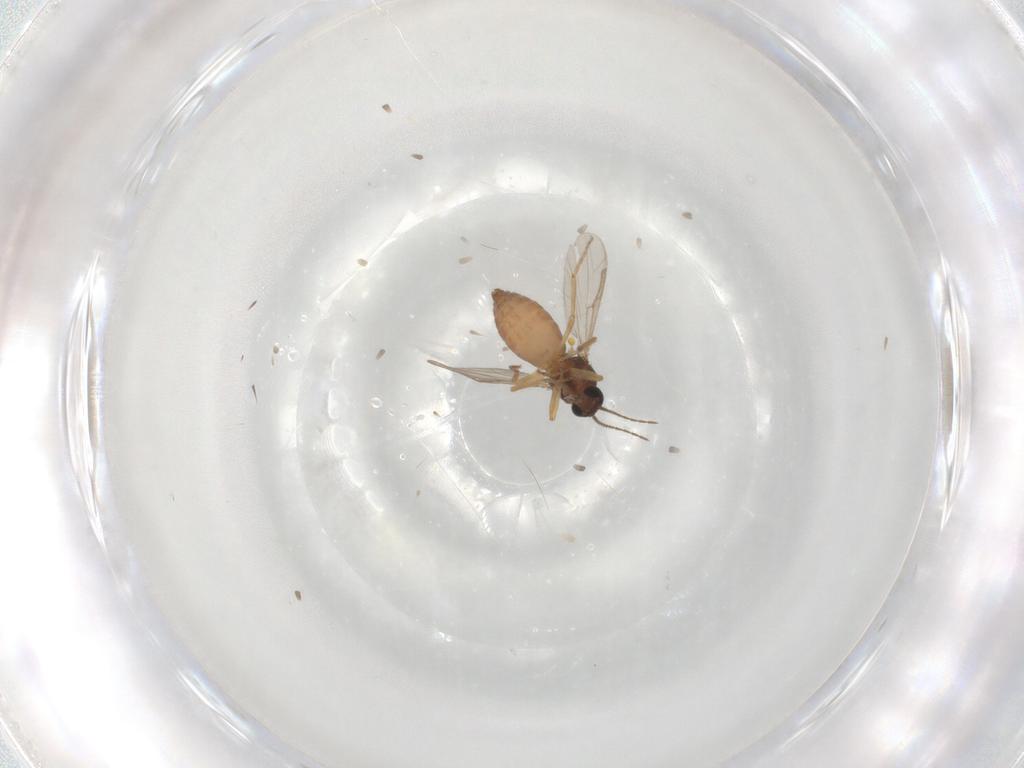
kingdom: Animalia
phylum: Arthropoda
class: Insecta
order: Diptera
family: Ceratopogonidae
